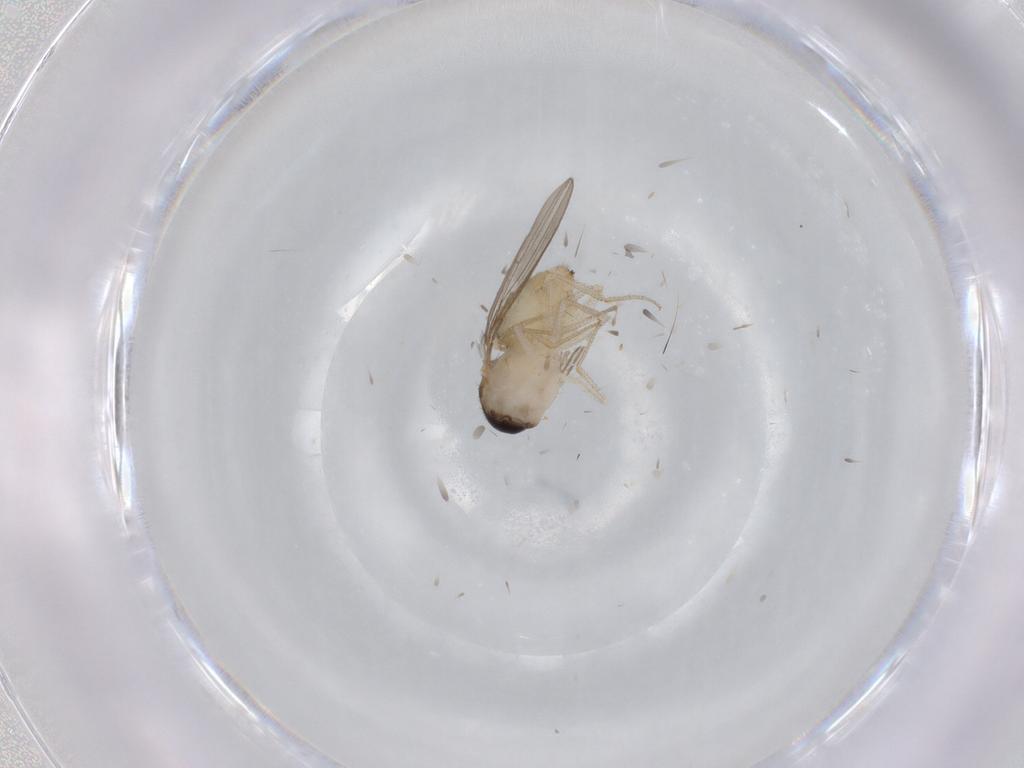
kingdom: Animalia
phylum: Arthropoda
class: Insecta
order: Diptera
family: Drosophilidae
